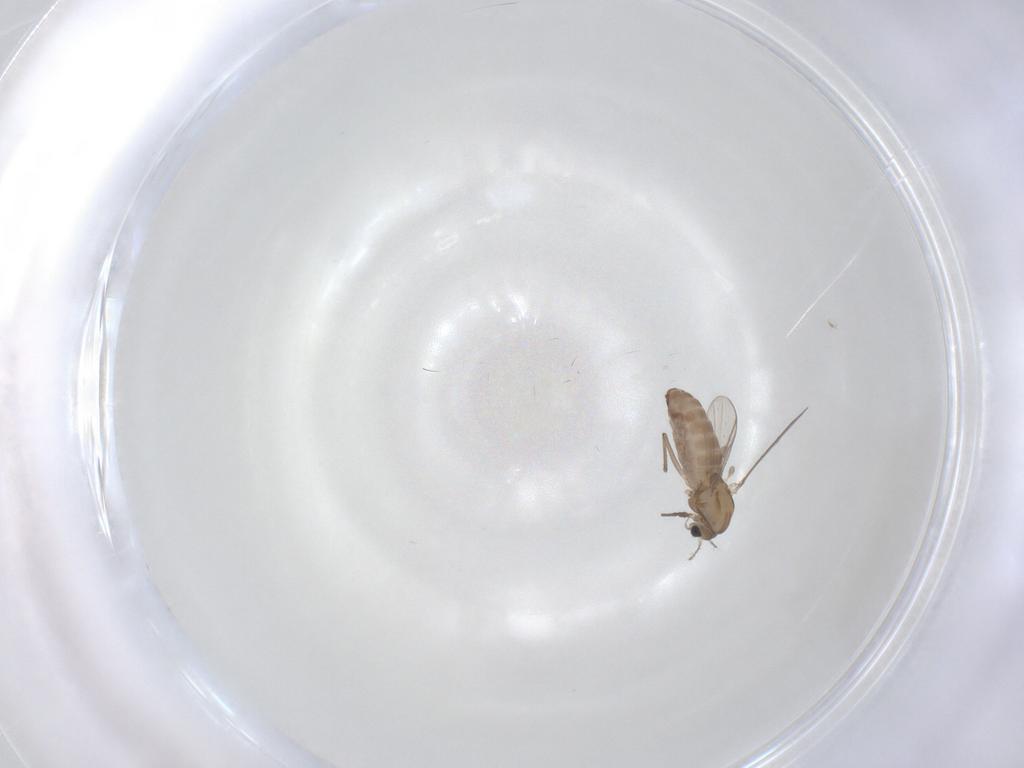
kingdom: Animalia
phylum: Arthropoda
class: Insecta
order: Diptera
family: Chironomidae
